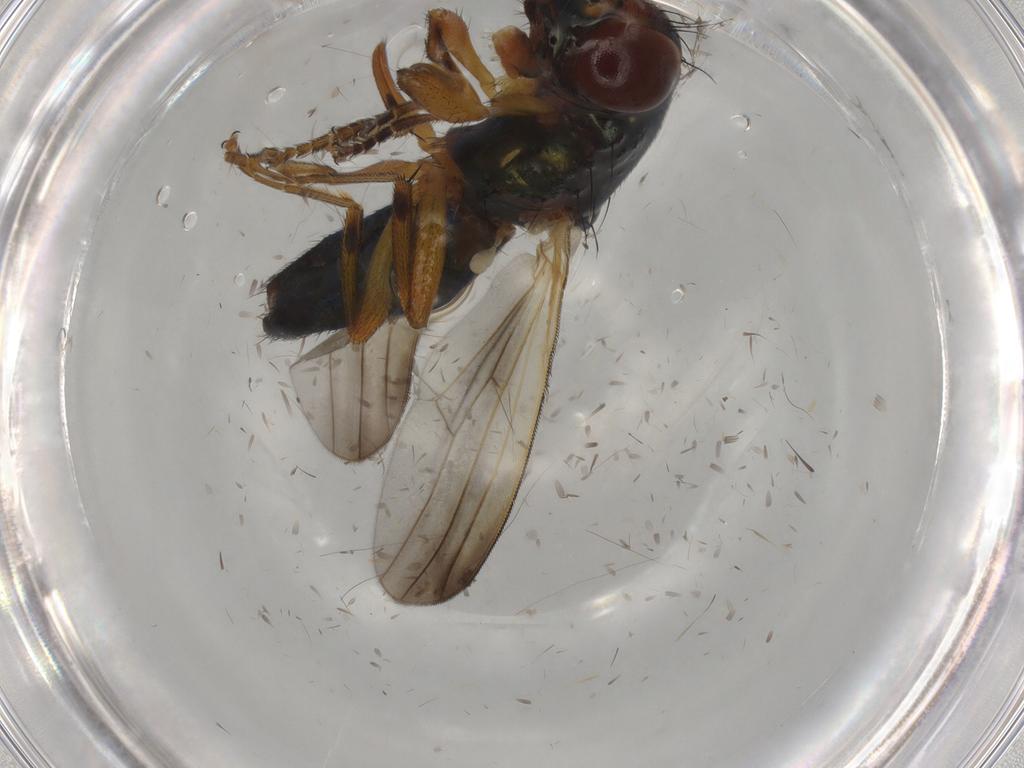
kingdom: Animalia
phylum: Arthropoda
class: Insecta
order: Diptera
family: Ulidiidae
